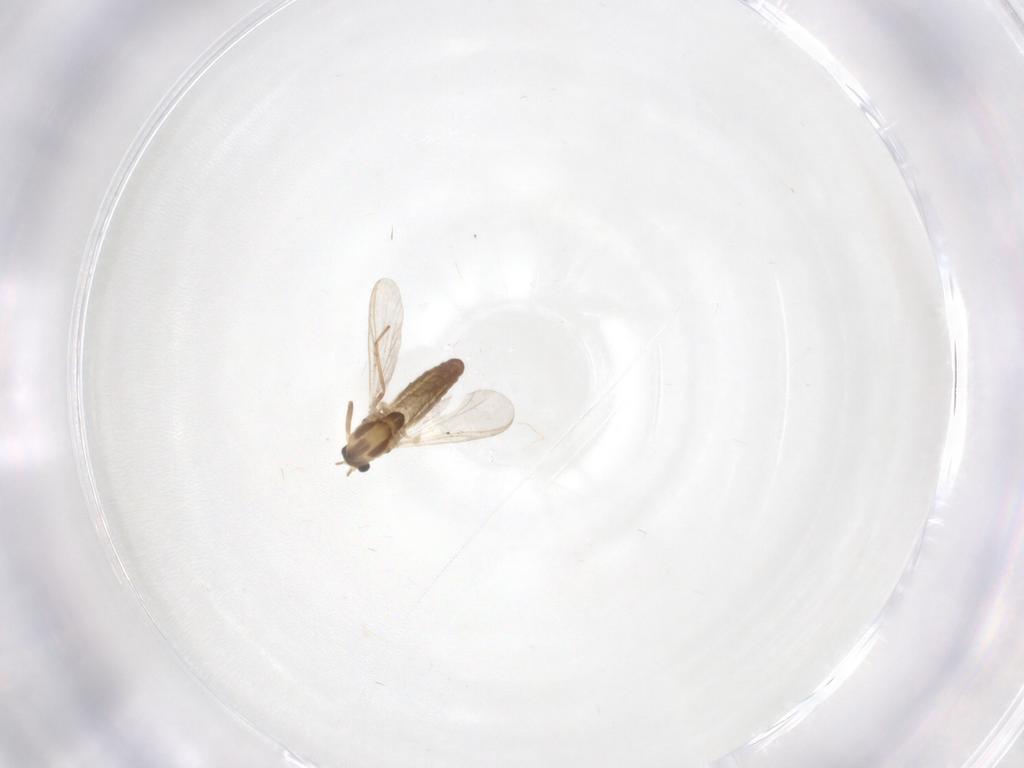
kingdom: Animalia
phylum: Arthropoda
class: Insecta
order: Diptera
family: Chironomidae
